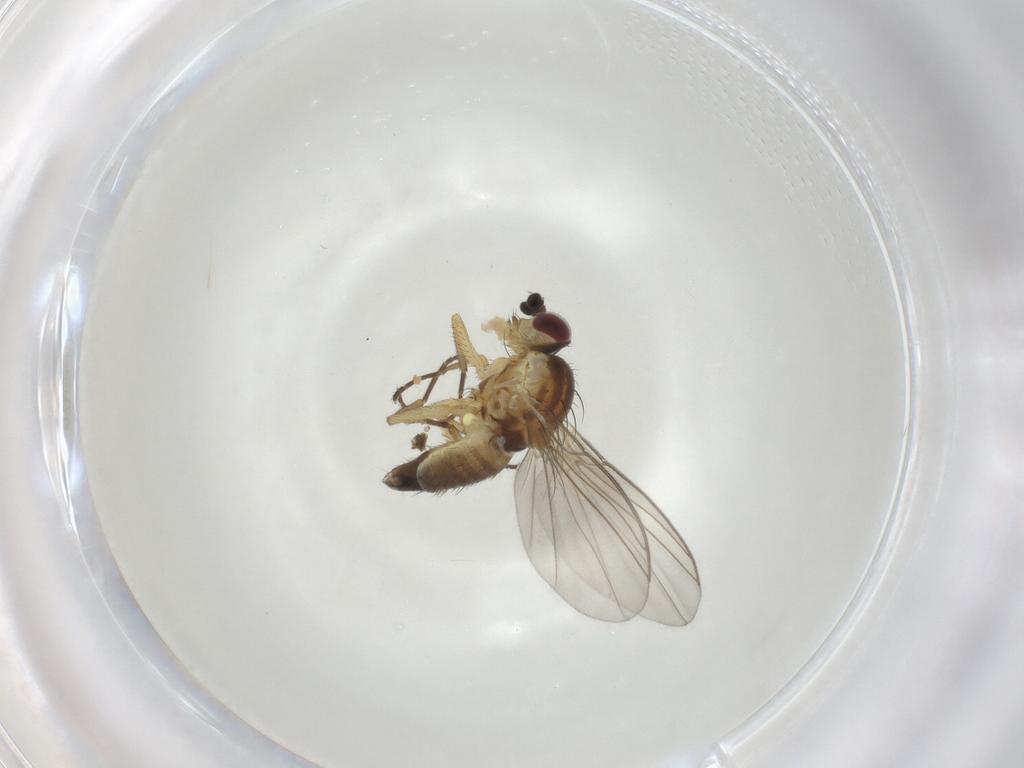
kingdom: Animalia
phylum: Arthropoda
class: Insecta
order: Diptera
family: Agromyzidae
